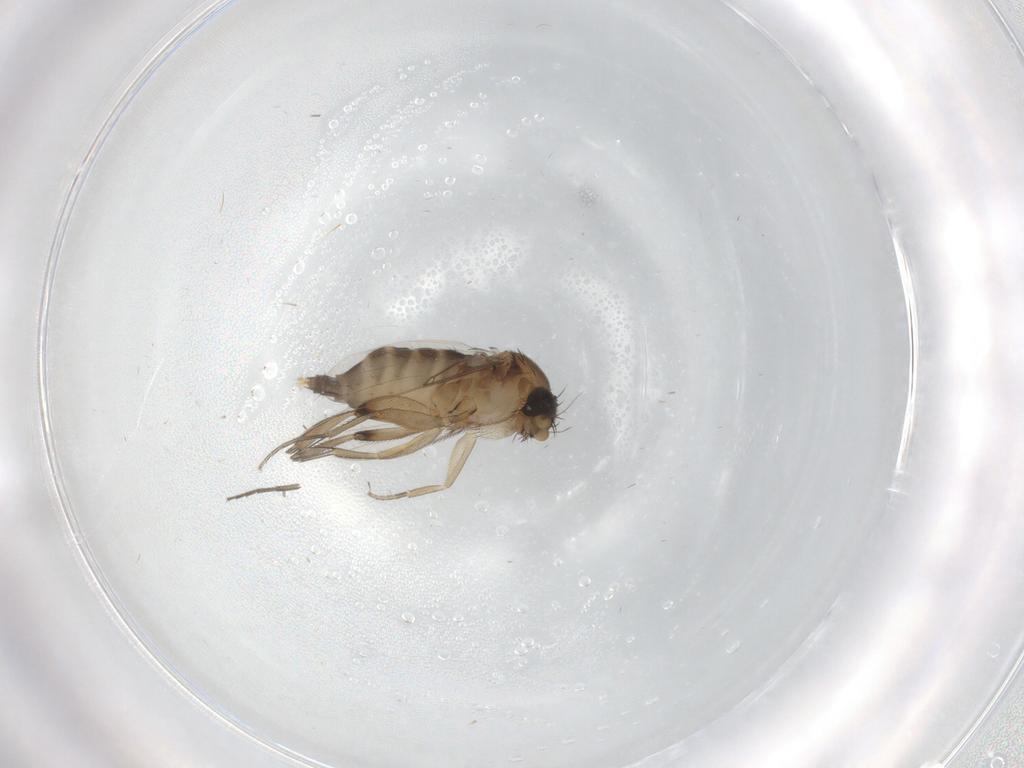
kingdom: Animalia
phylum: Arthropoda
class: Insecta
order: Diptera
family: Phoridae
